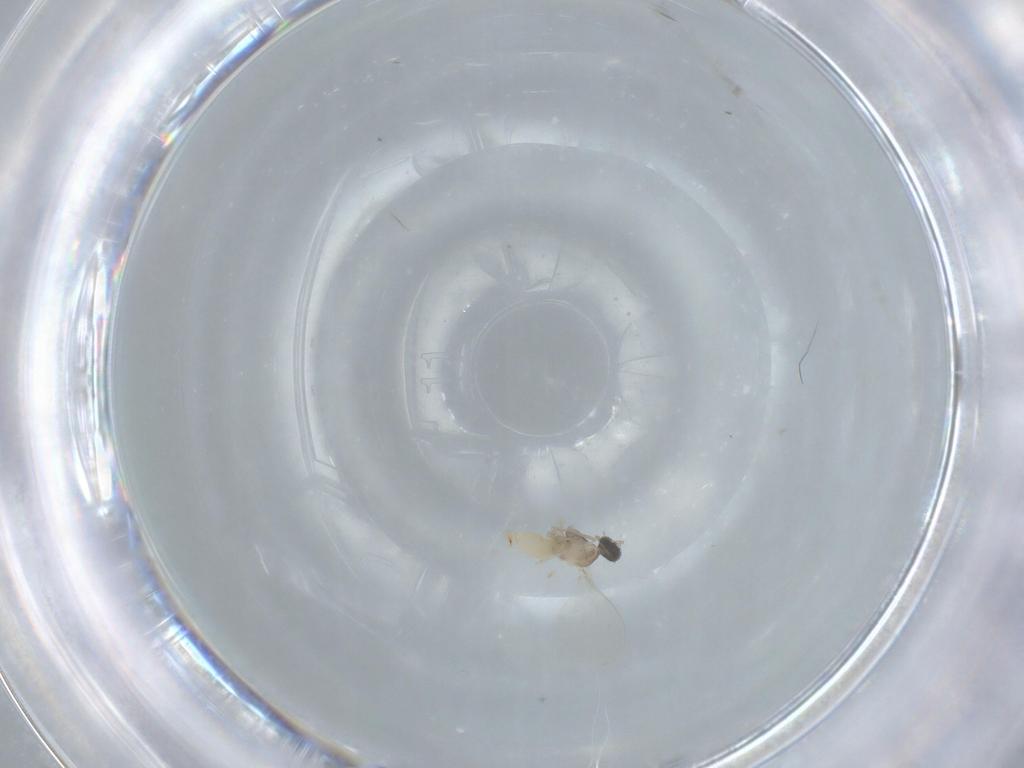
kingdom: Animalia
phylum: Arthropoda
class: Insecta
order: Diptera
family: Cecidomyiidae
